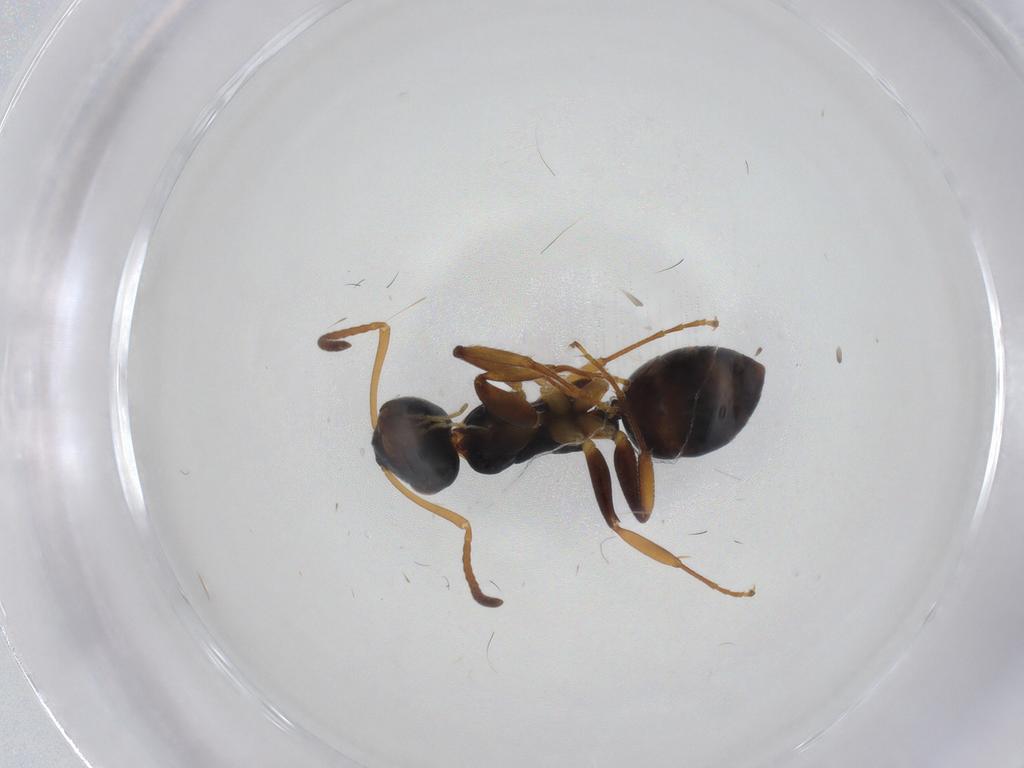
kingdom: Animalia
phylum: Arthropoda
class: Insecta
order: Hymenoptera
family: Formicidae
